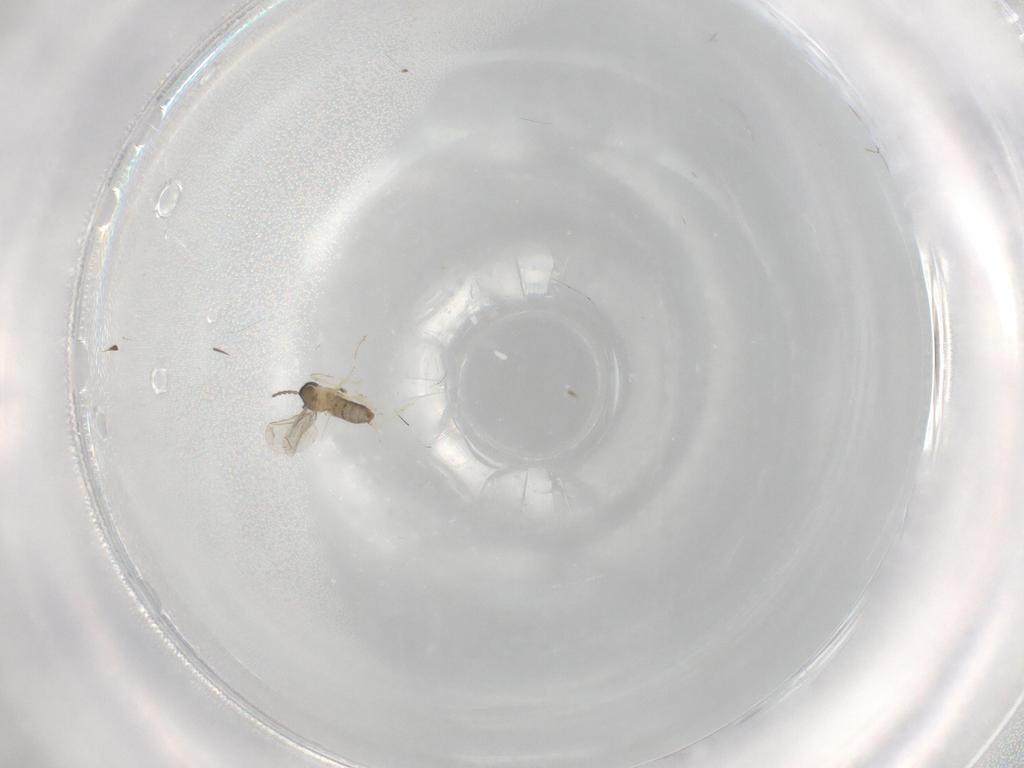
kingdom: Animalia
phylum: Arthropoda
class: Insecta
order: Diptera
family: Cecidomyiidae
